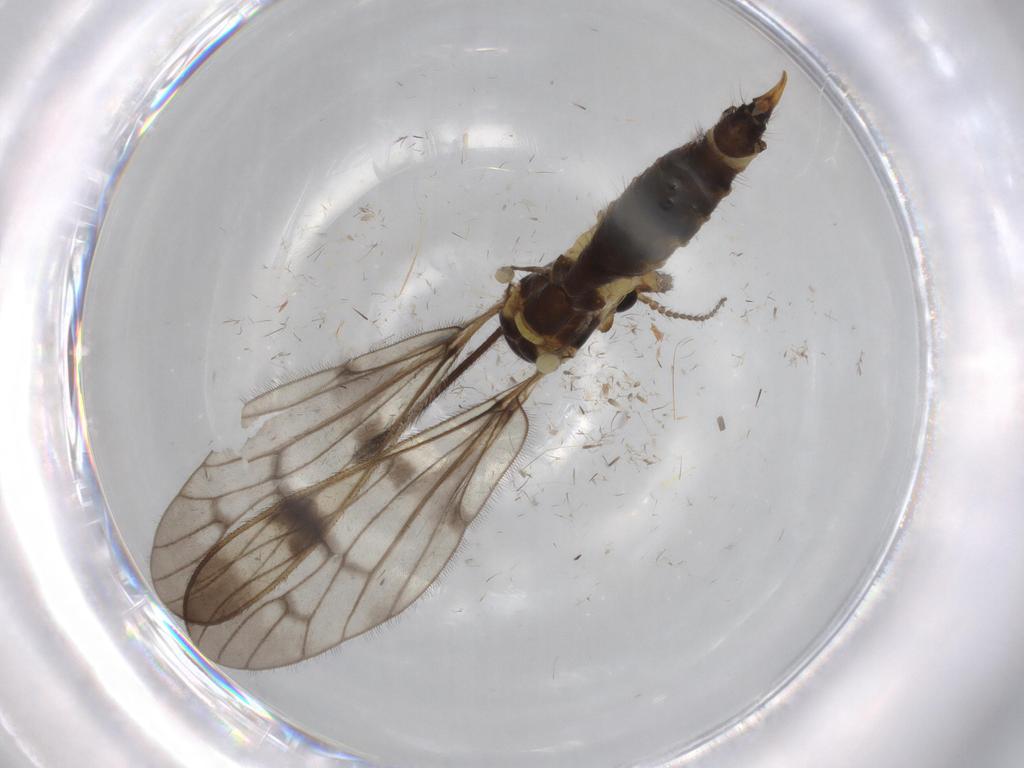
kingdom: Animalia
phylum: Arthropoda
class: Insecta
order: Diptera
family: Limoniidae
